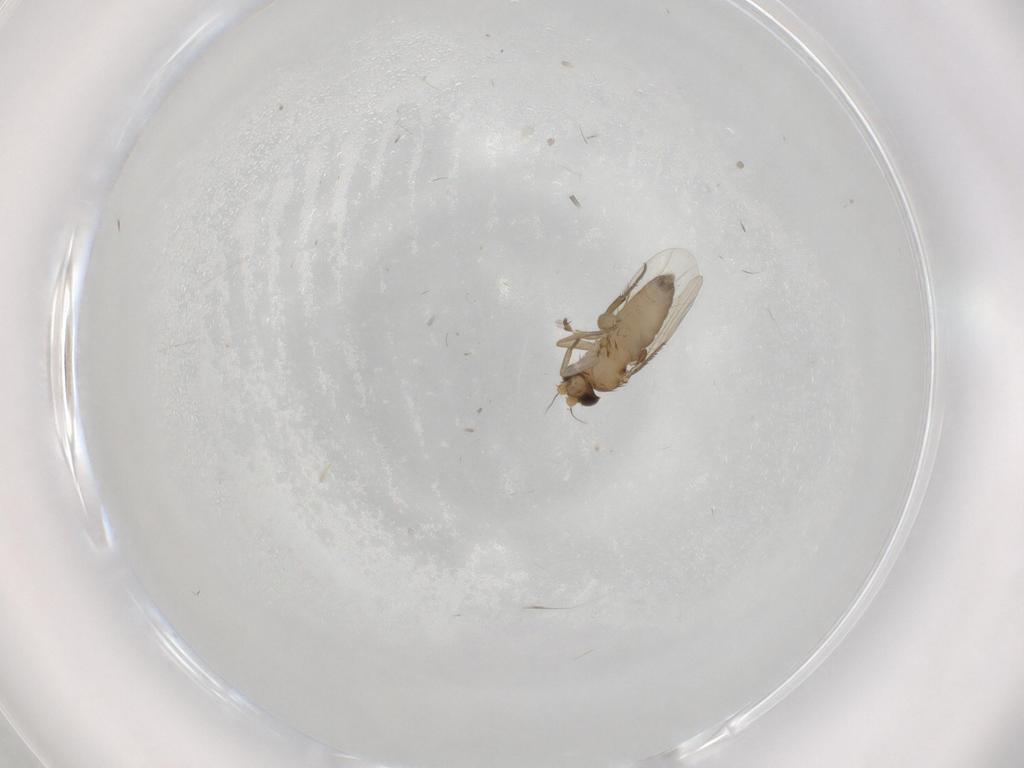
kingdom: Animalia
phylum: Arthropoda
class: Insecta
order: Diptera
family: Phoridae
